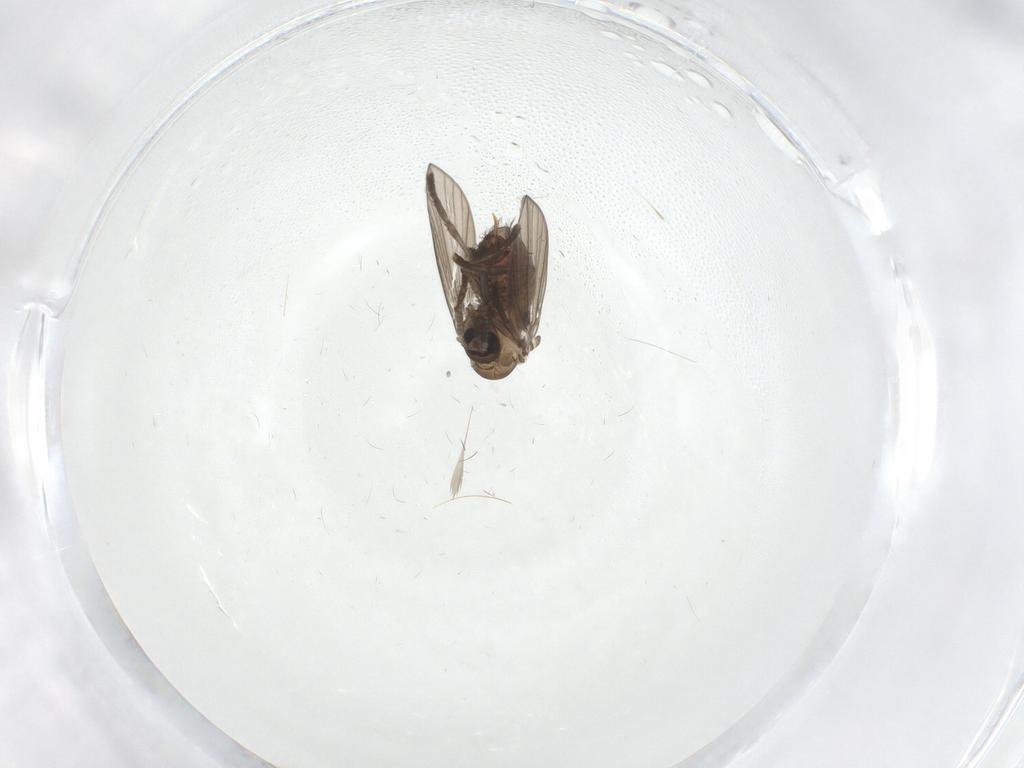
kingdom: Animalia
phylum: Arthropoda
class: Insecta
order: Diptera
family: Psychodidae
